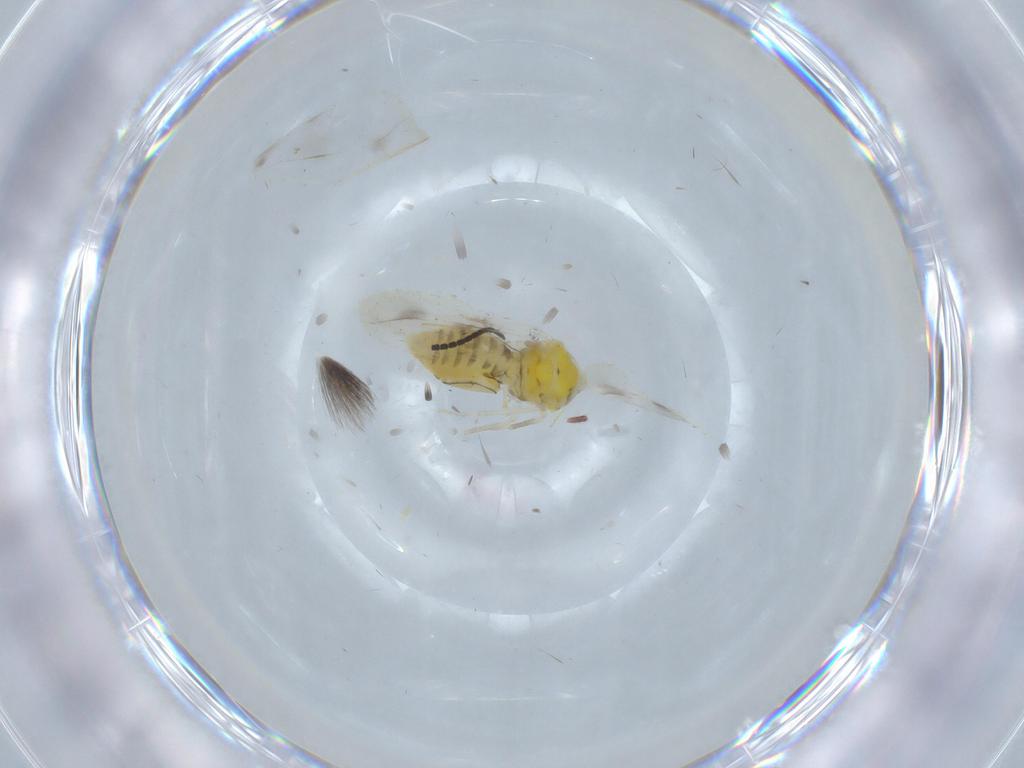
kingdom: Animalia
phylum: Arthropoda
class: Insecta
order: Hemiptera
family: Aleyrodidae
